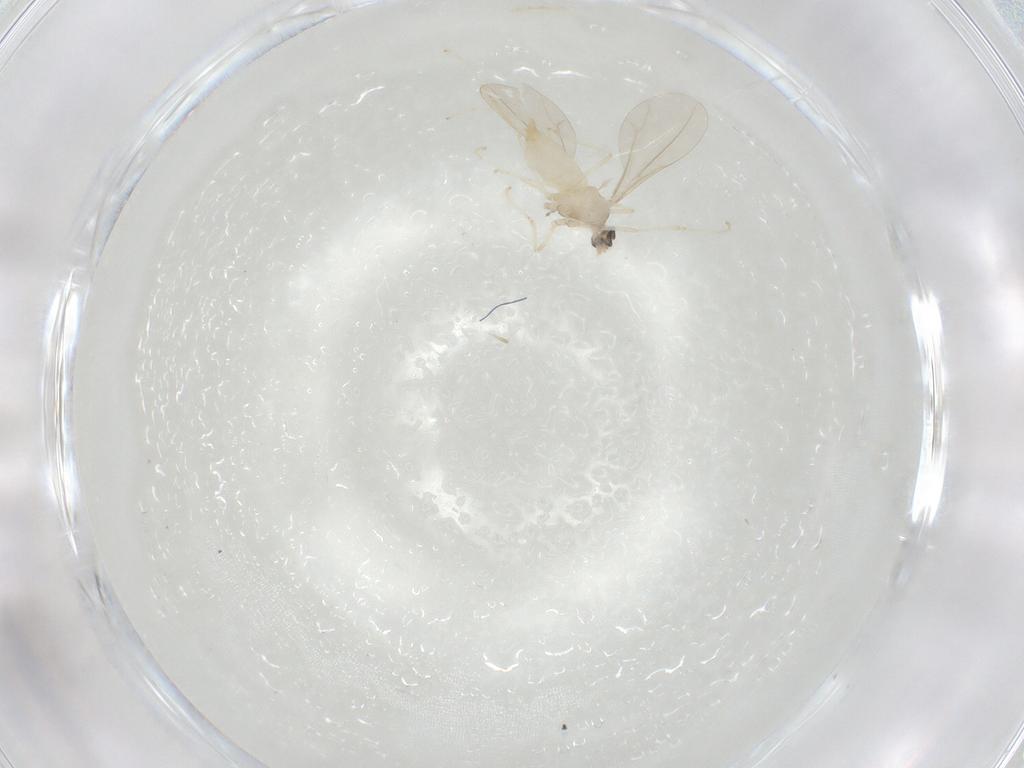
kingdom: Animalia
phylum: Arthropoda
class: Insecta
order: Diptera
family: Cecidomyiidae
